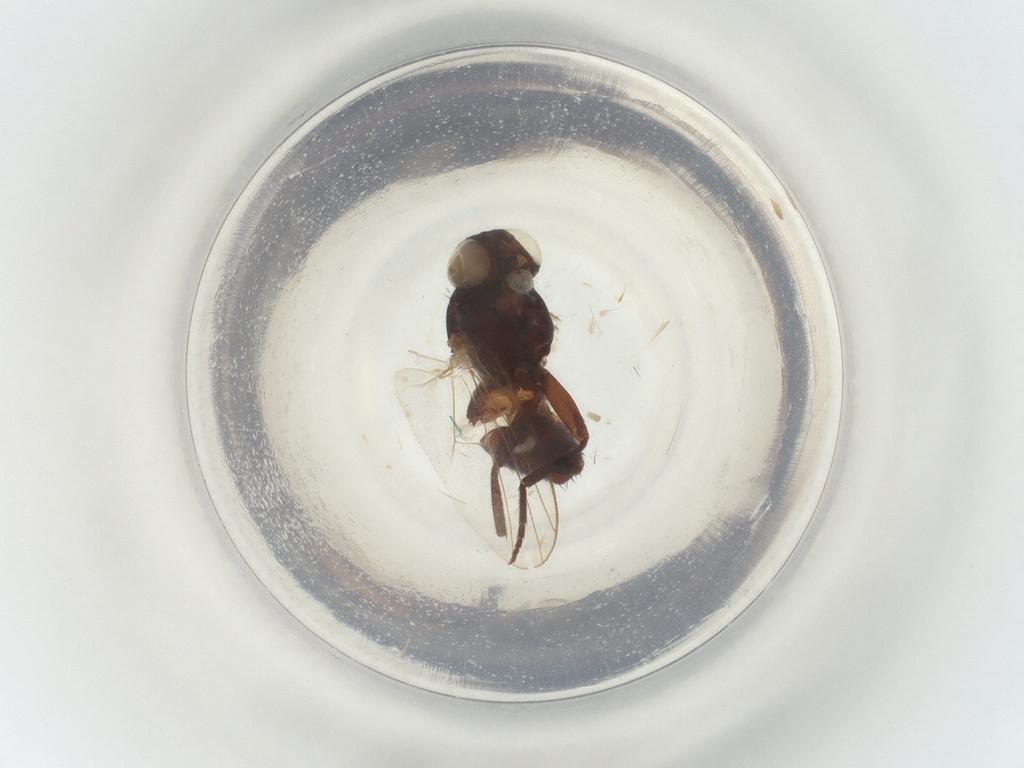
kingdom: Animalia
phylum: Arthropoda
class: Insecta
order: Diptera
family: Agromyzidae
